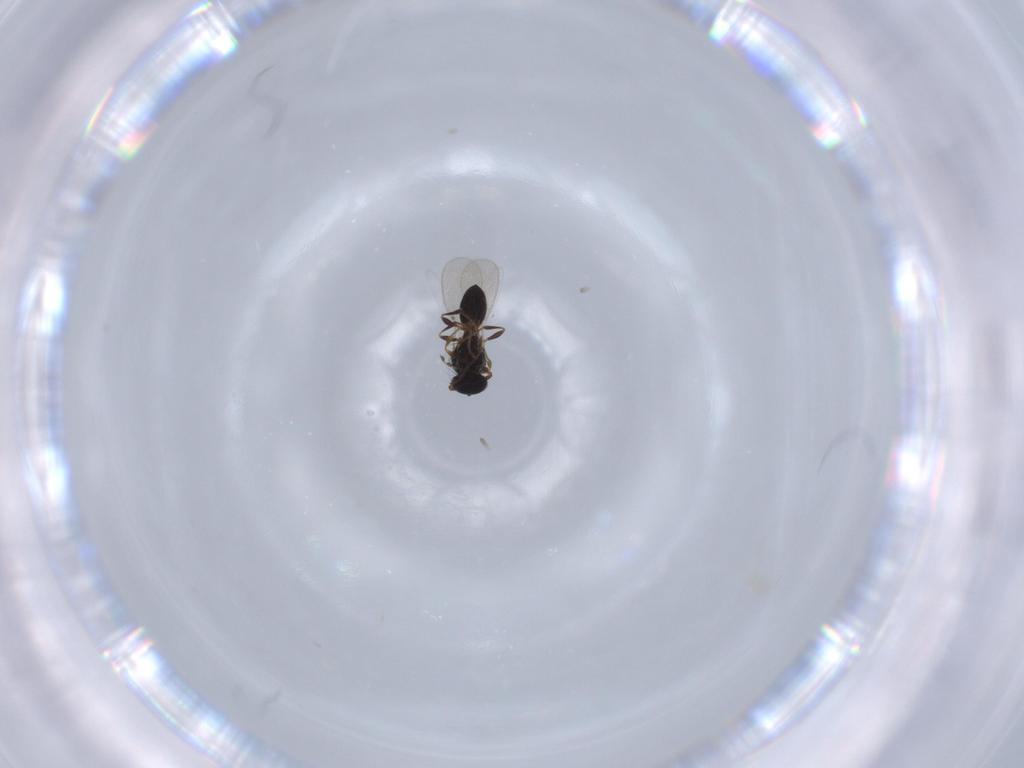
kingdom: Animalia
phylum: Arthropoda
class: Insecta
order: Hymenoptera
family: Platygastridae
